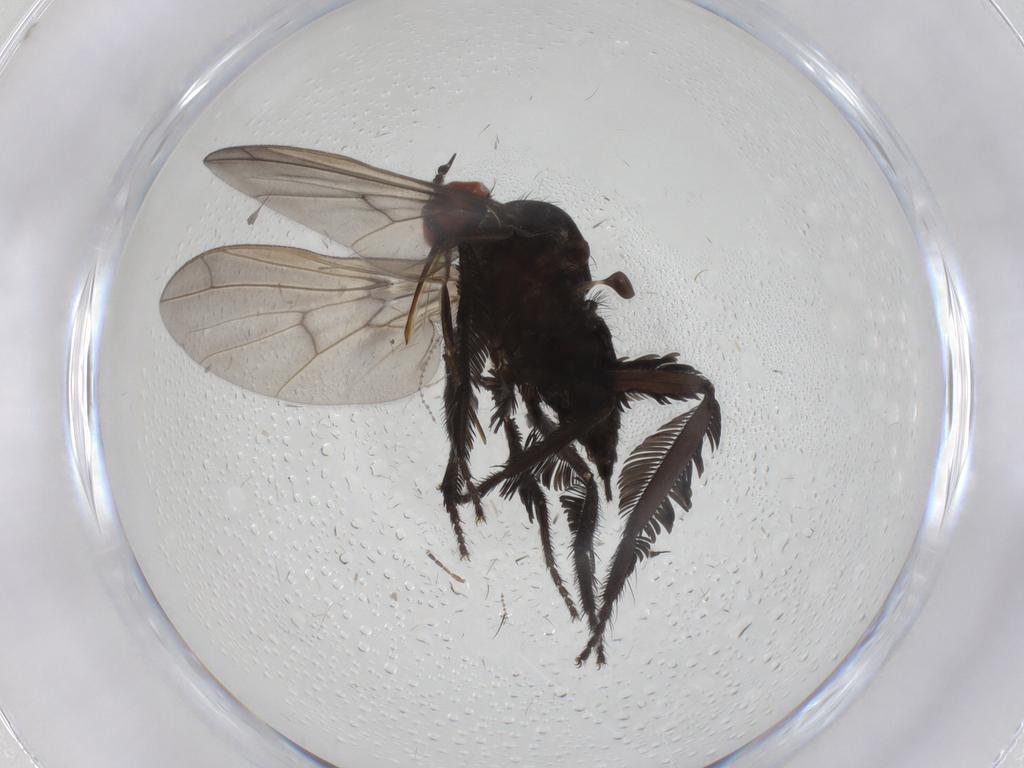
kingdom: Animalia
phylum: Arthropoda
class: Insecta
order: Diptera
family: Empididae
